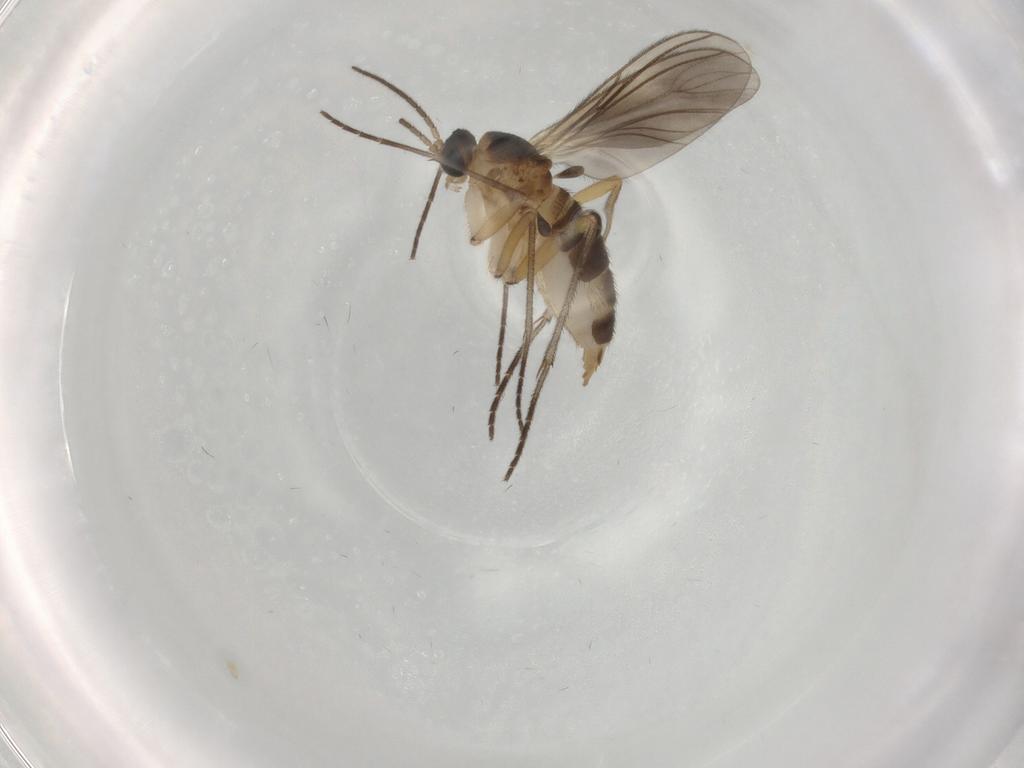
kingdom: Animalia
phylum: Arthropoda
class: Insecta
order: Diptera
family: Sciaridae
